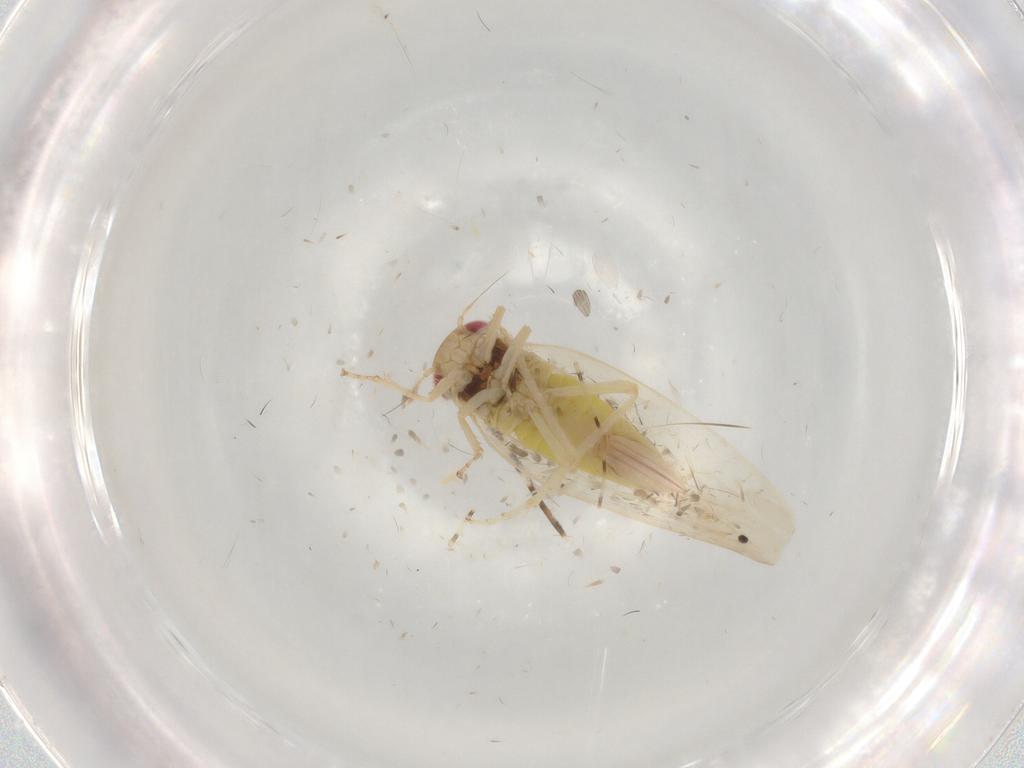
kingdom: Animalia
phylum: Arthropoda
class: Insecta
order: Hemiptera
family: Cicadellidae
